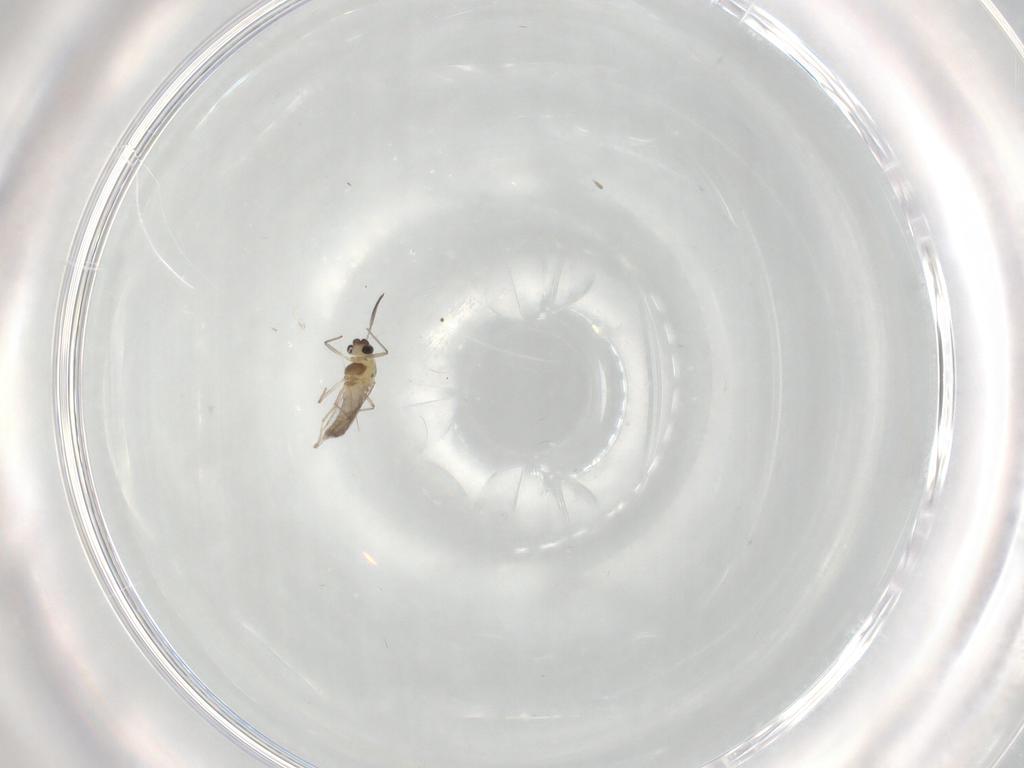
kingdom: Animalia
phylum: Arthropoda
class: Insecta
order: Diptera
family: Chironomidae
